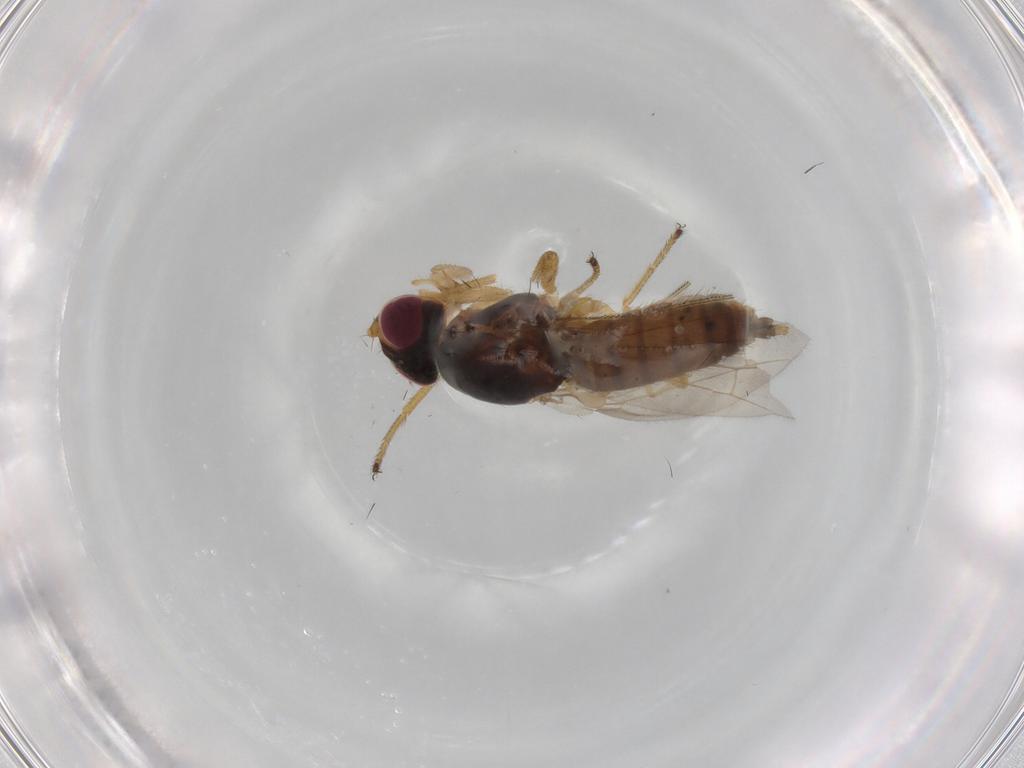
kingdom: Animalia
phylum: Arthropoda
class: Insecta
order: Diptera
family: Anthomyzidae
